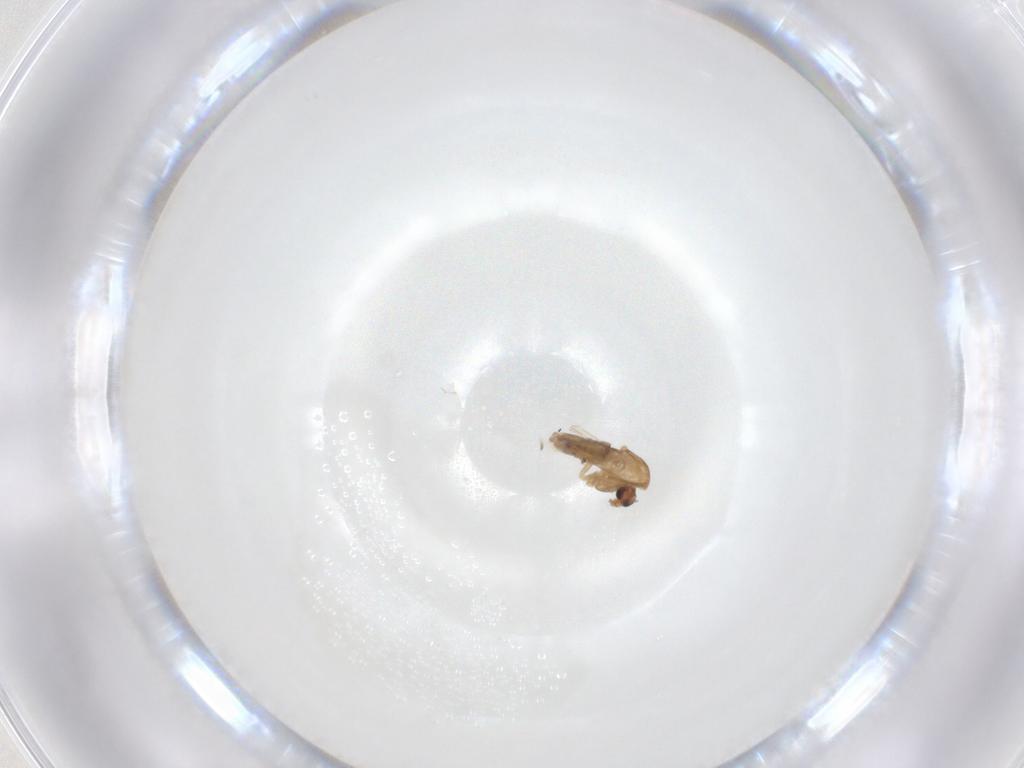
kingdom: Animalia
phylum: Arthropoda
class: Insecta
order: Diptera
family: Chironomidae
